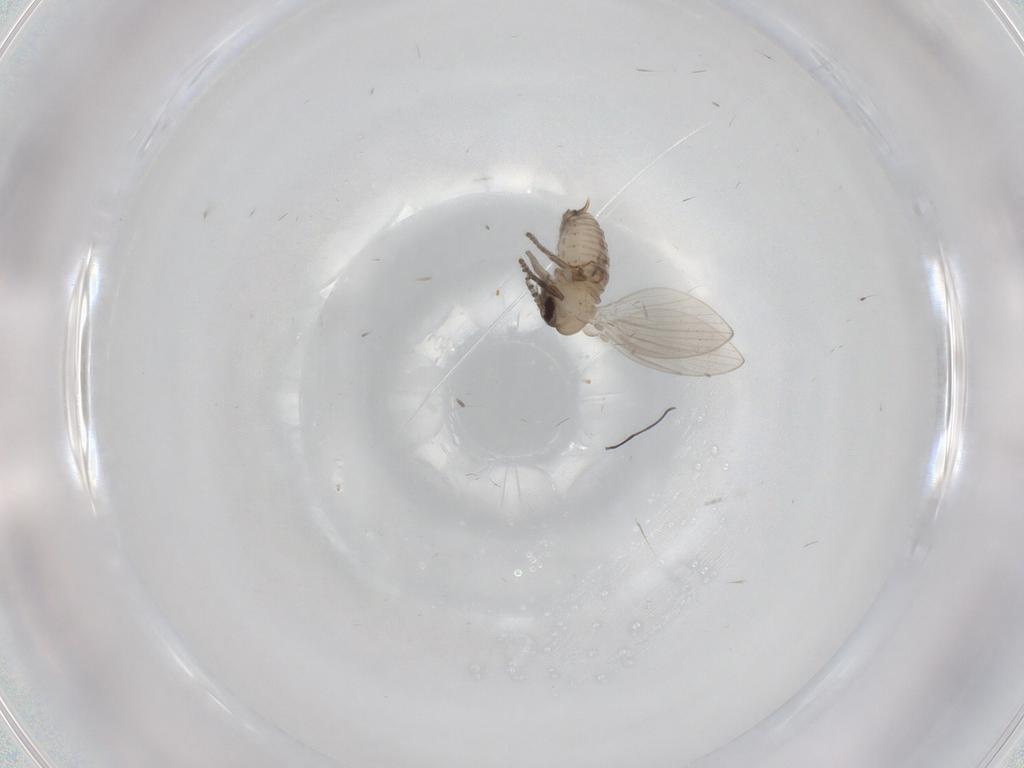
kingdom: Animalia
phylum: Arthropoda
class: Insecta
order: Diptera
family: Psychodidae
